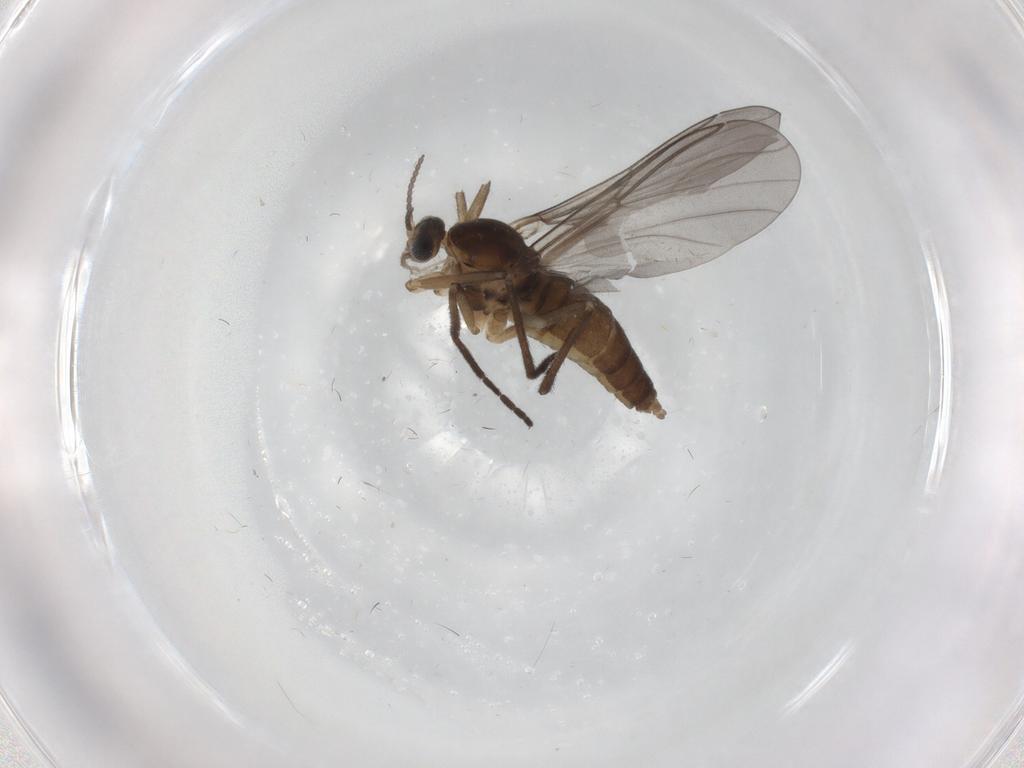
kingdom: Animalia
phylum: Arthropoda
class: Insecta
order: Diptera
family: Cecidomyiidae
